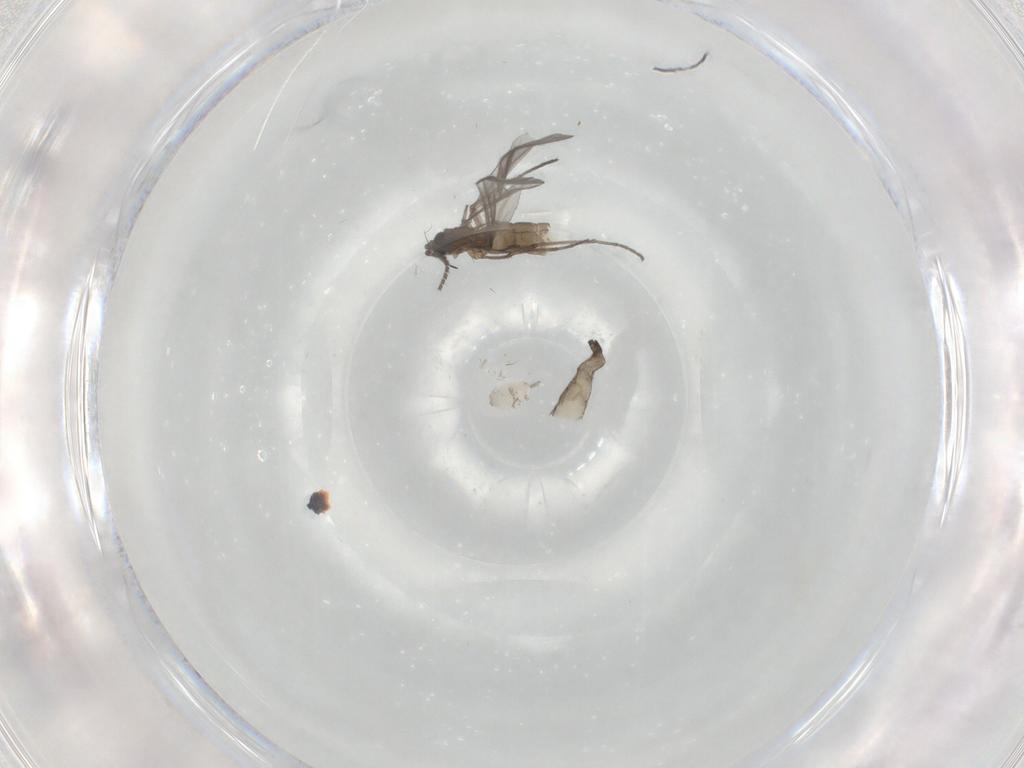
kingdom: Animalia
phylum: Arthropoda
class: Insecta
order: Diptera
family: Sciaridae
